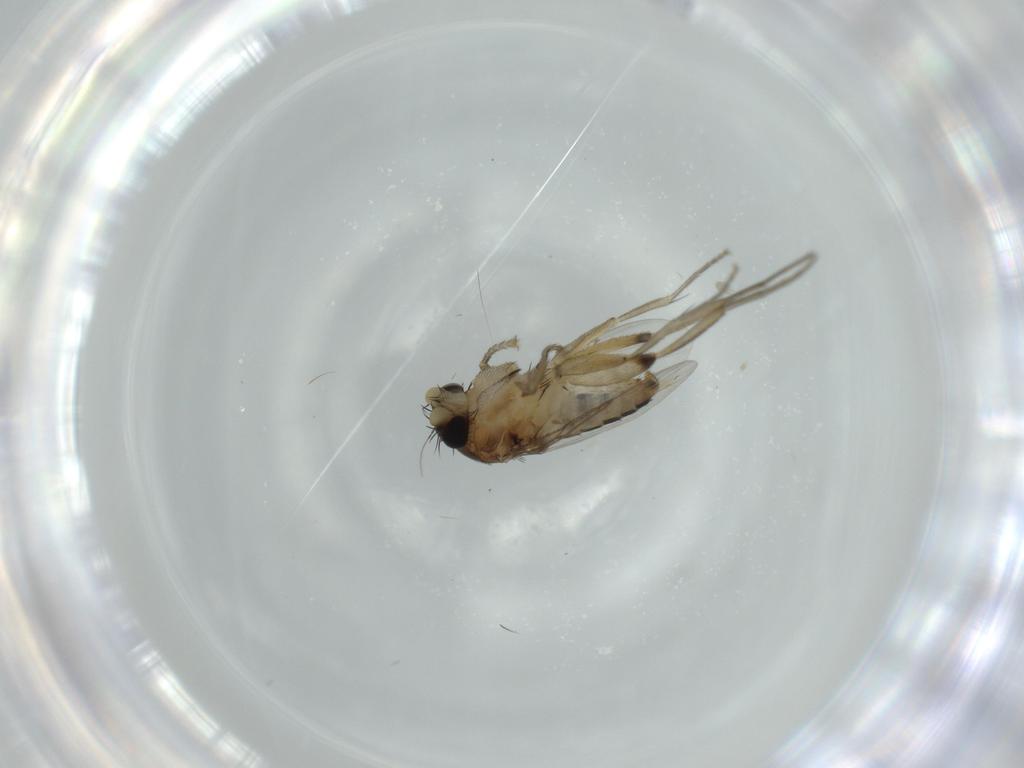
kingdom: Animalia
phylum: Arthropoda
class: Insecta
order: Diptera
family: Phoridae
